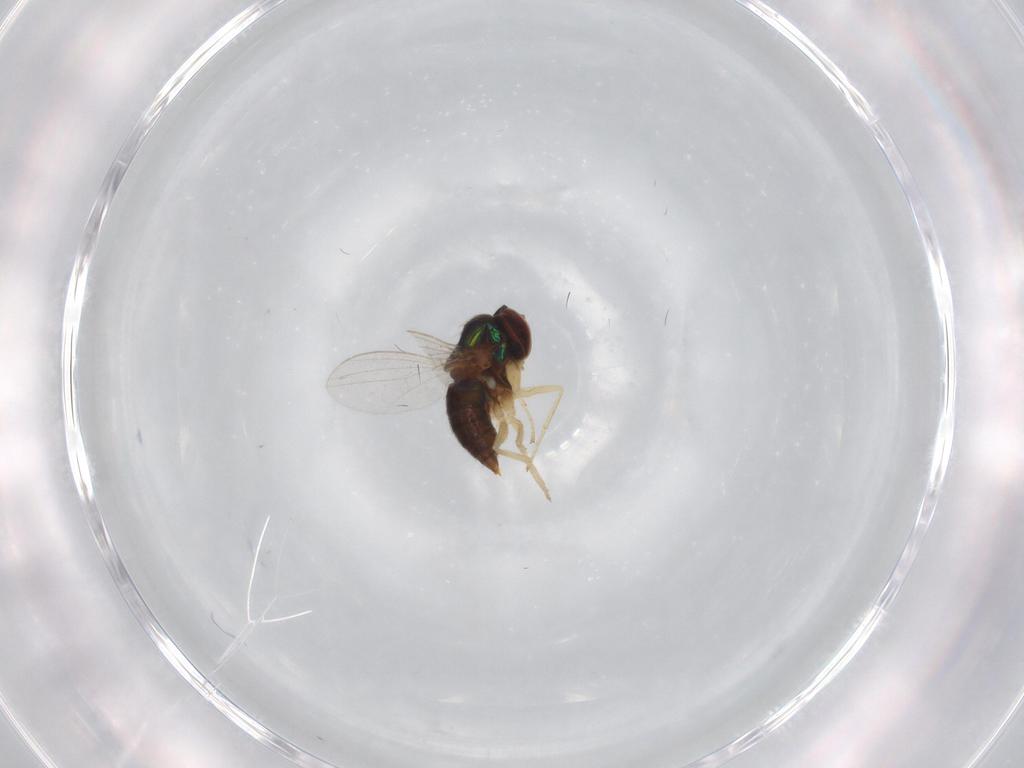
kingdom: Animalia
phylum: Arthropoda
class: Insecta
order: Diptera
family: Dolichopodidae
